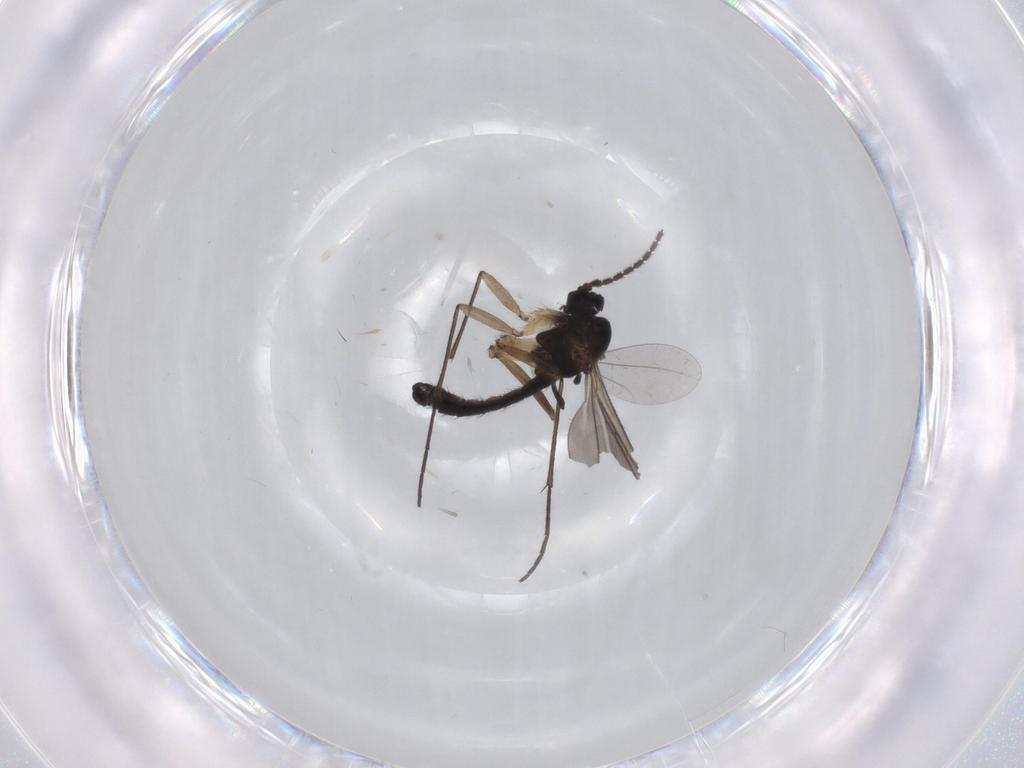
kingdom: Animalia
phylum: Arthropoda
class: Insecta
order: Diptera
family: Sciaridae
